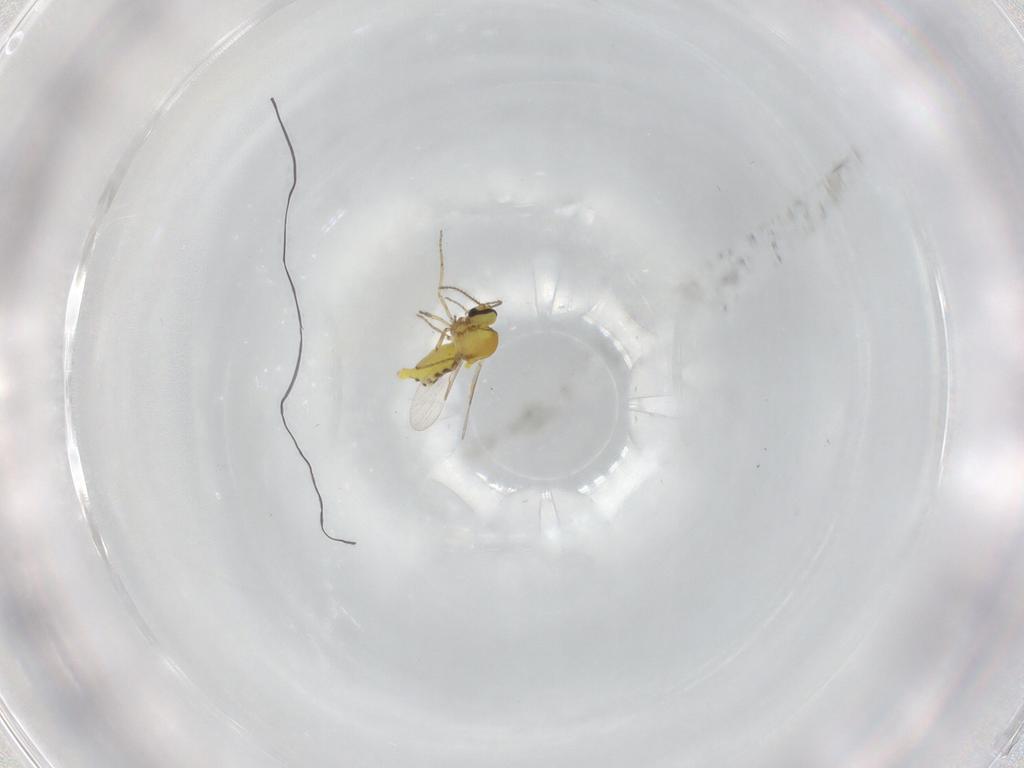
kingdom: Animalia
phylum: Arthropoda
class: Insecta
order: Diptera
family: Ceratopogonidae
